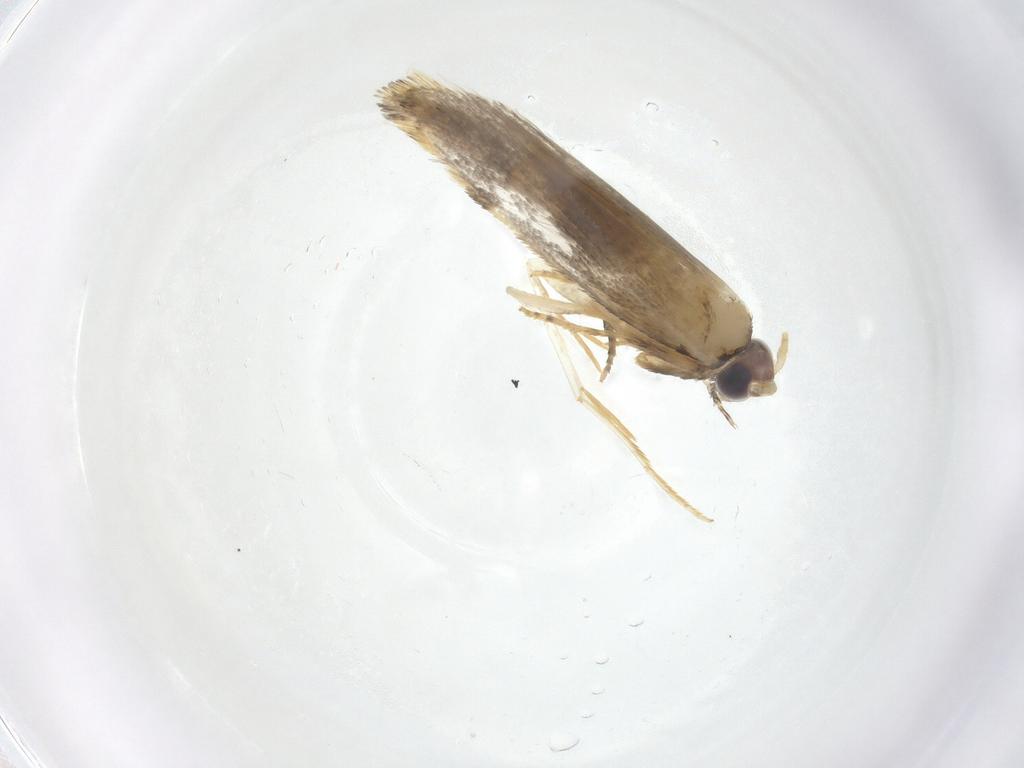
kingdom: Animalia
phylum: Arthropoda
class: Insecta
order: Lepidoptera
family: Tineidae
